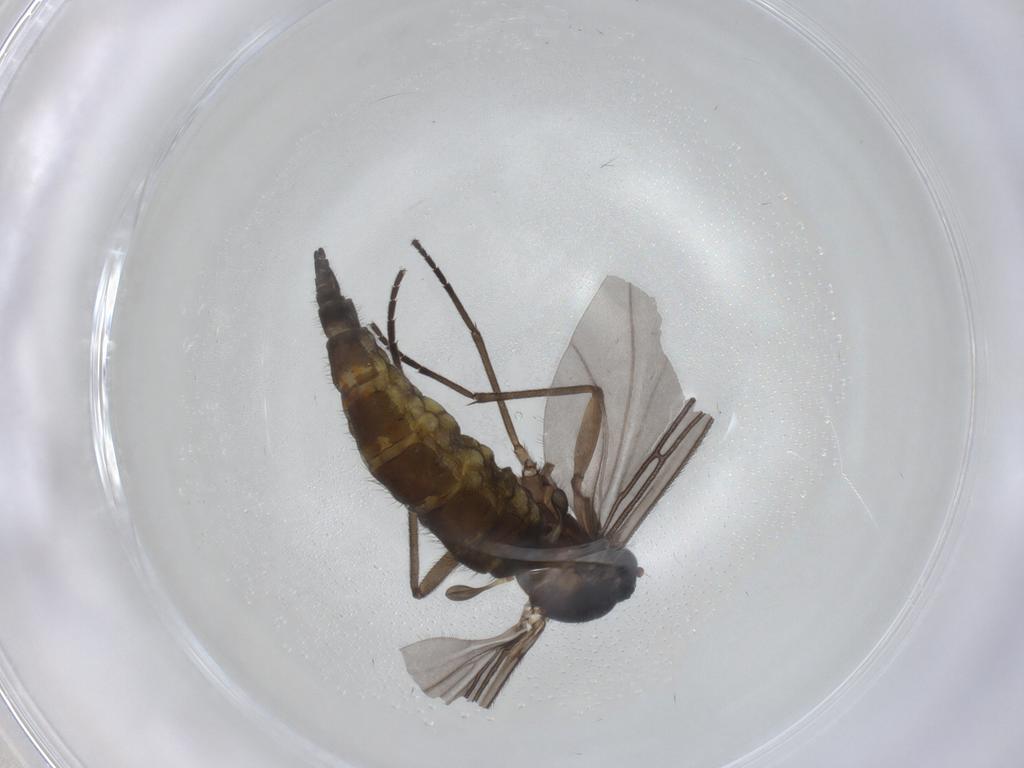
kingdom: Animalia
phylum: Arthropoda
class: Insecta
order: Diptera
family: Sciaridae
